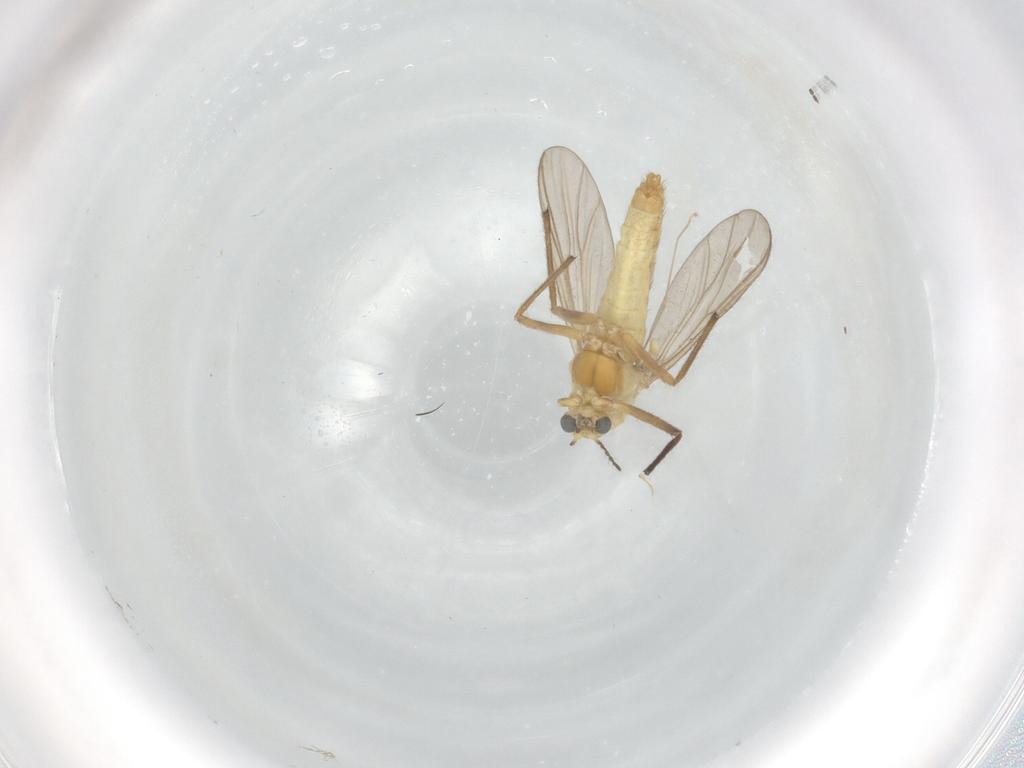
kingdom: Animalia
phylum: Arthropoda
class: Insecta
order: Diptera
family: Chironomidae
